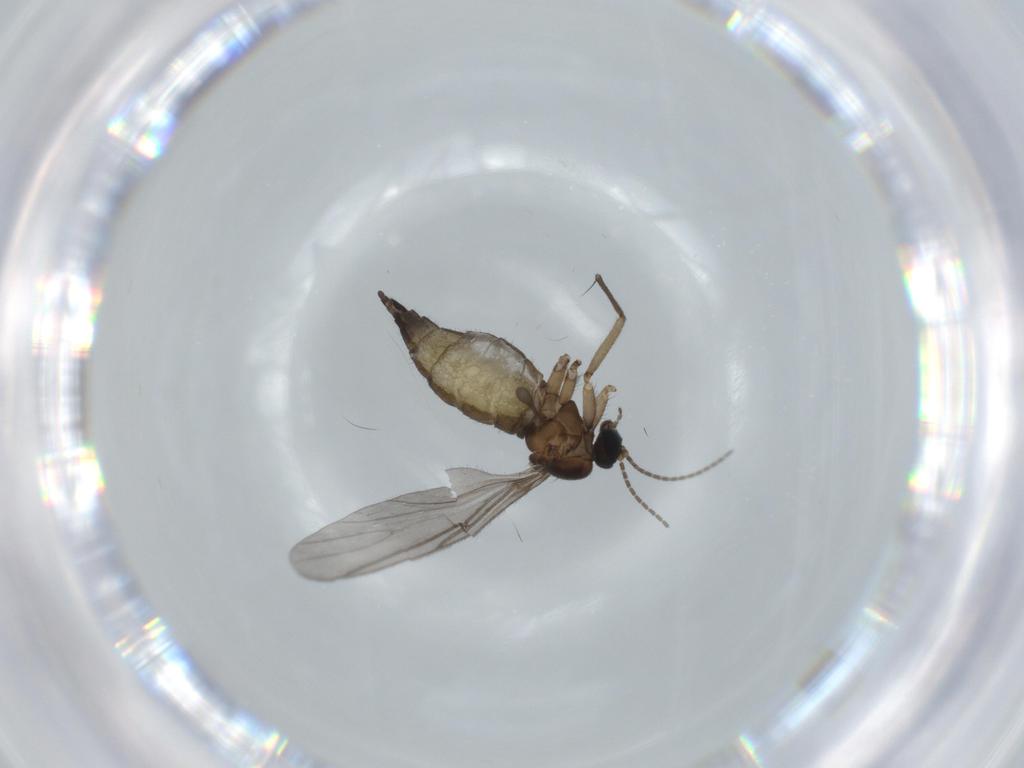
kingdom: Animalia
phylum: Arthropoda
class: Insecta
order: Diptera
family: Sciaridae
